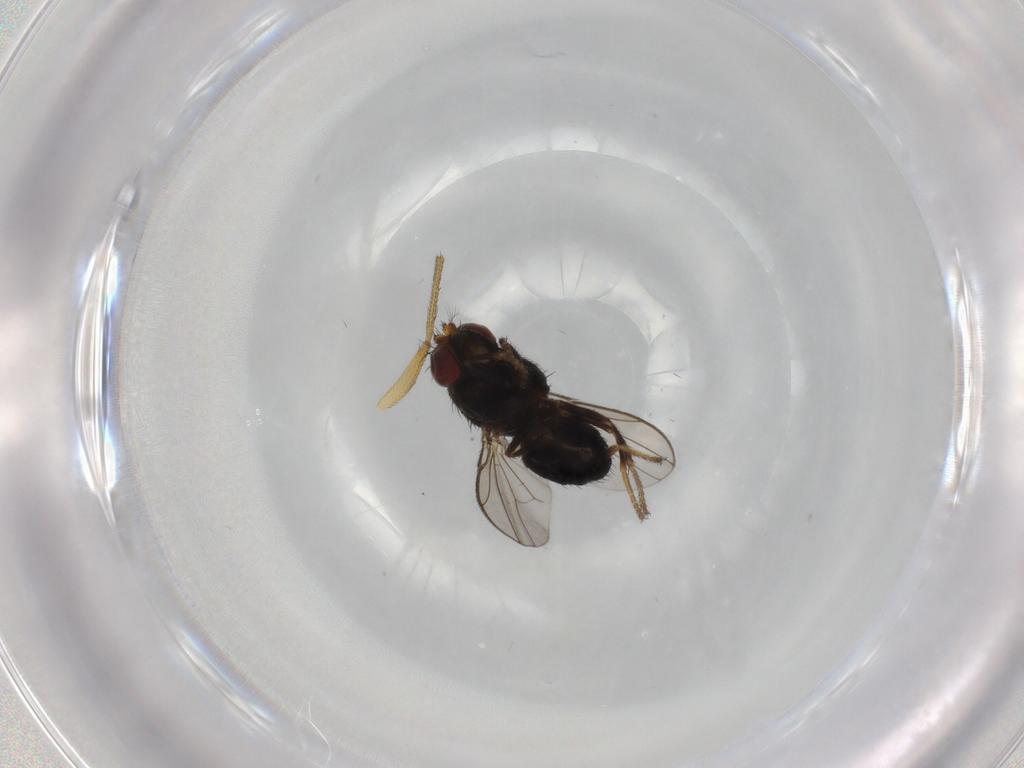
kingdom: Animalia
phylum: Arthropoda
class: Insecta
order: Diptera
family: Ephydridae
